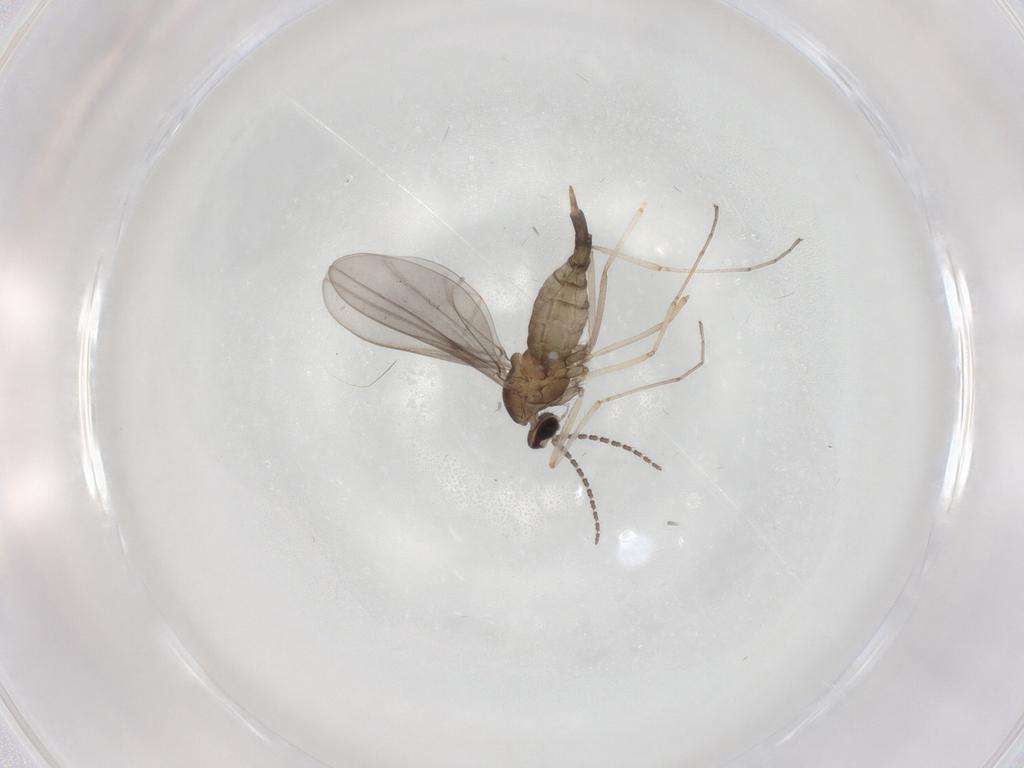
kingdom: Animalia
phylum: Arthropoda
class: Insecta
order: Diptera
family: Cecidomyiidae
